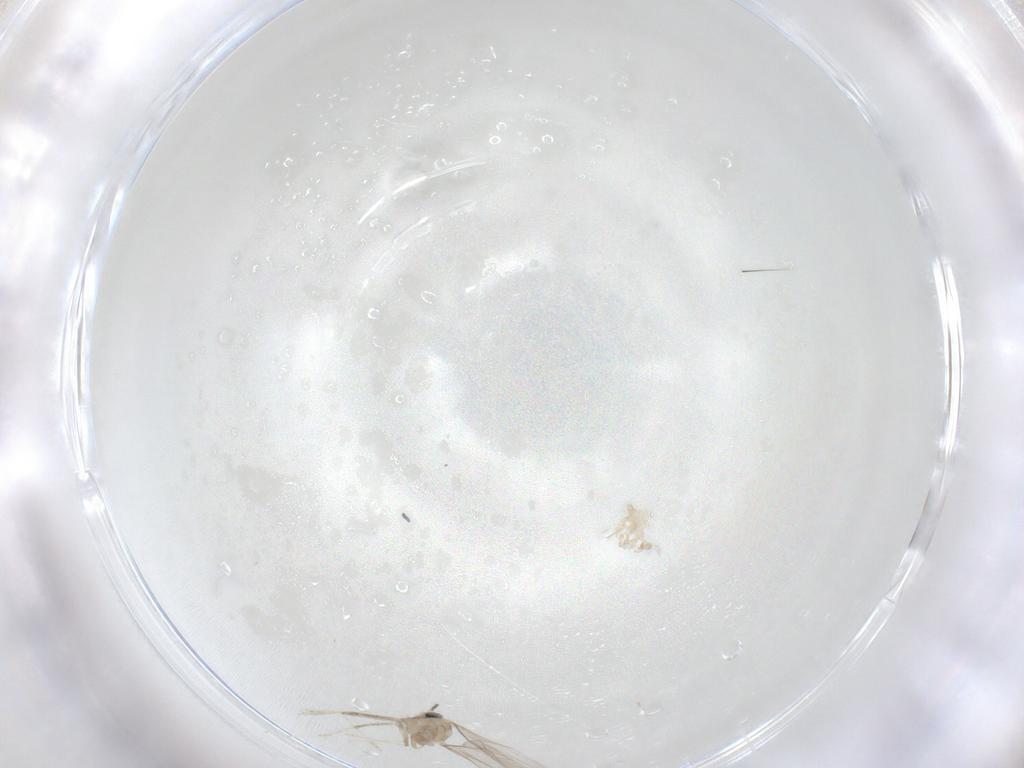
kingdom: Animalia
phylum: Arthropoda
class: Insecta
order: Diptera
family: Cecidomyiidae
